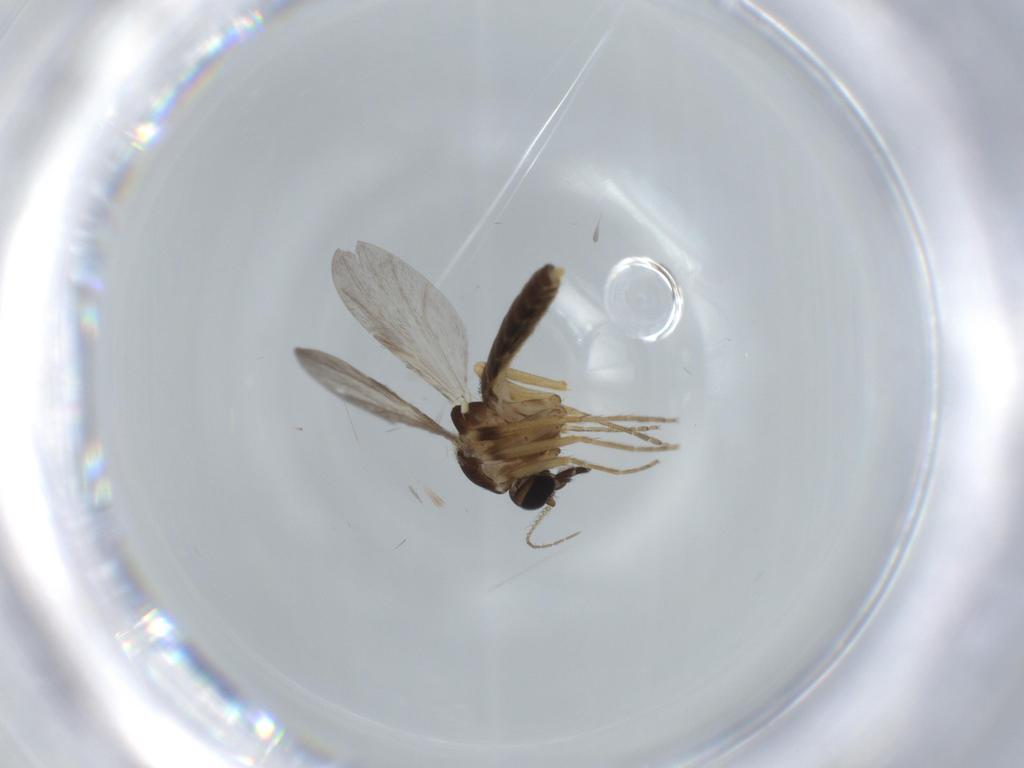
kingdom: Animalia
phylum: Arthropoda
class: Insecta
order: Diptera
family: Ceratopogonidae
